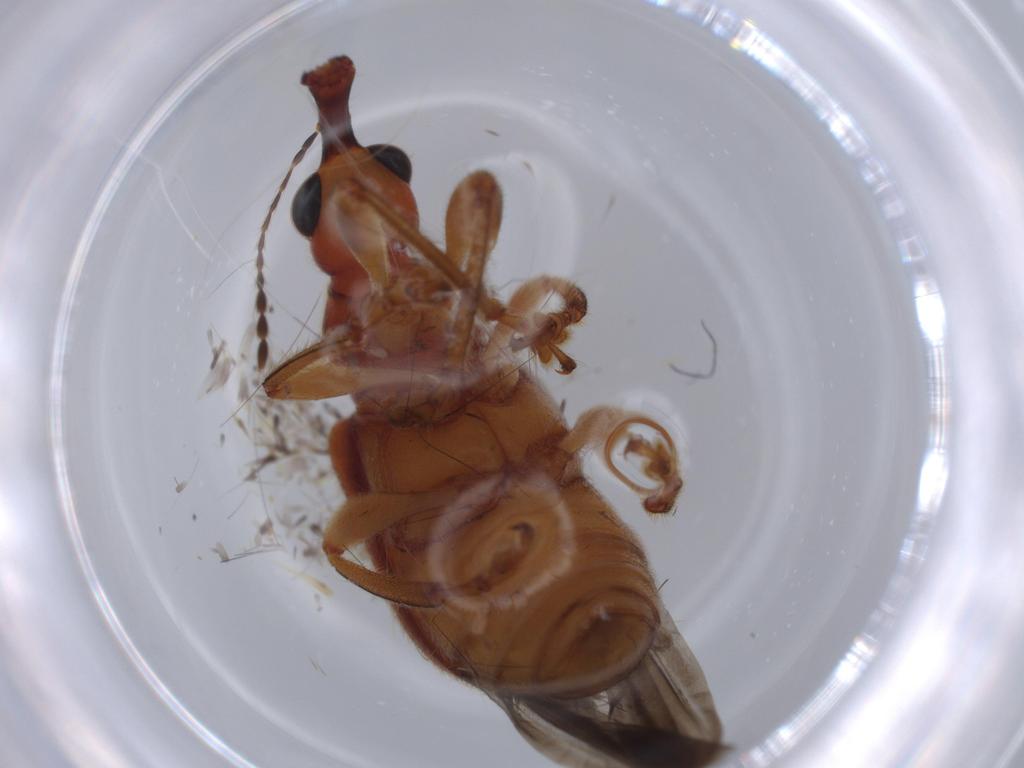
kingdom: Animalia
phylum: Arthropoda
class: Insecta
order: Coleoptera
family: Attelabidae
